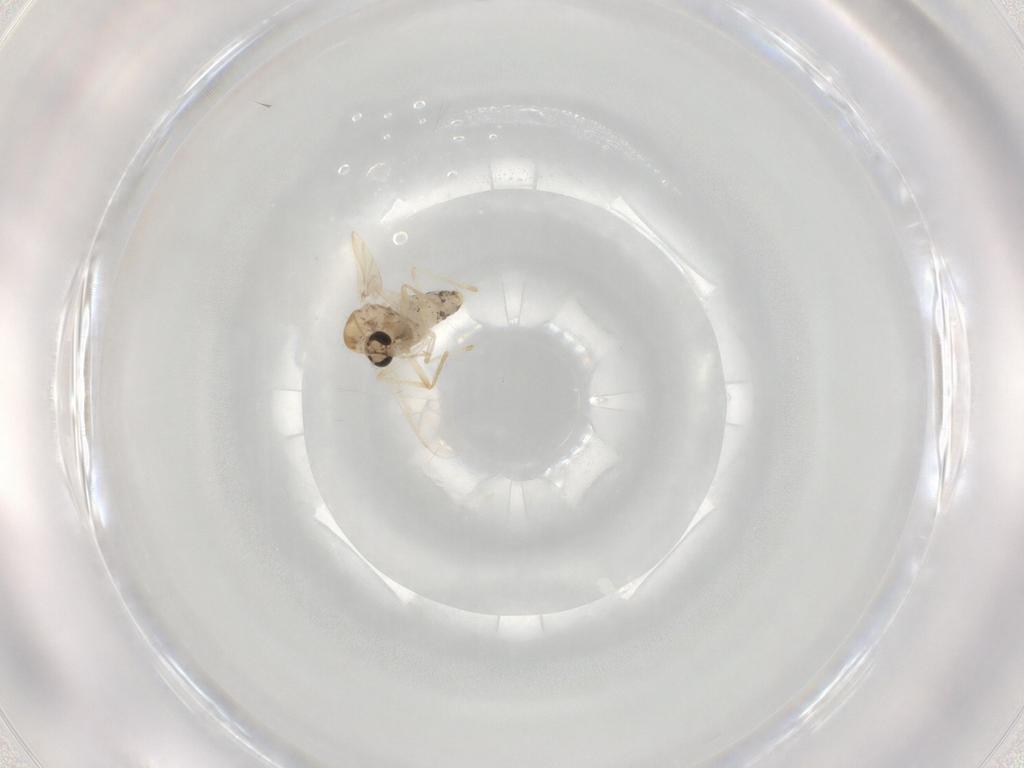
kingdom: Animalia
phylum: Arthropoda
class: Insecta
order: Diptera
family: Chironomidae
